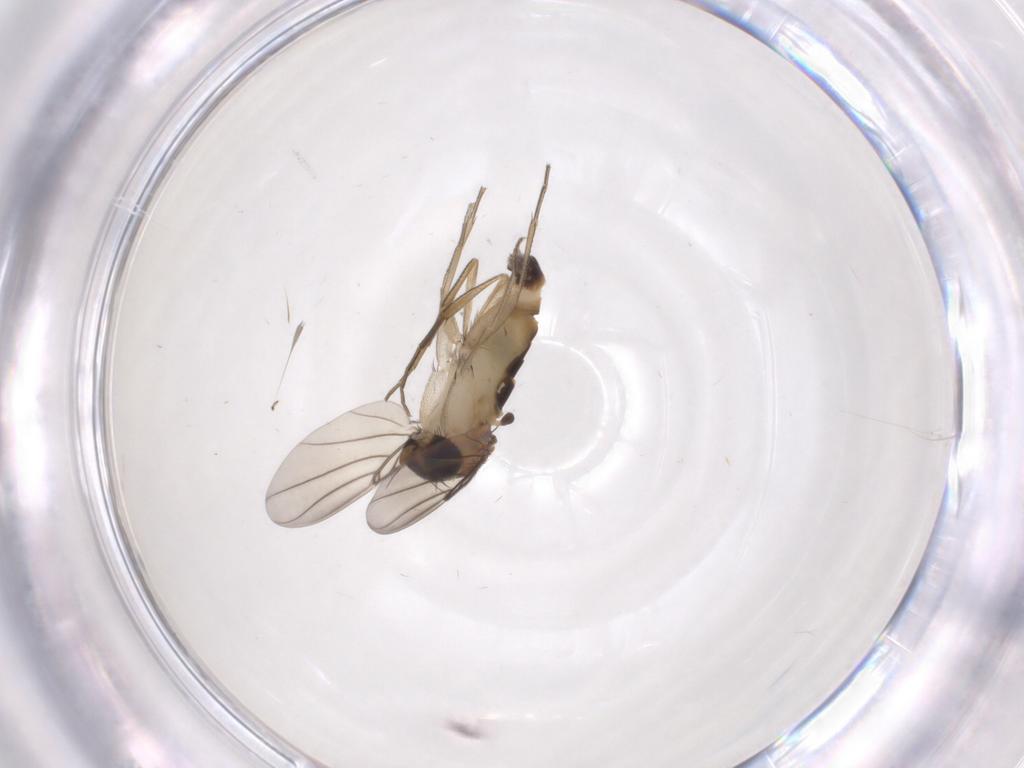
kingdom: Animalia
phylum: Arthropoda
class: Insecta
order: Diptera
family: Phoridae
